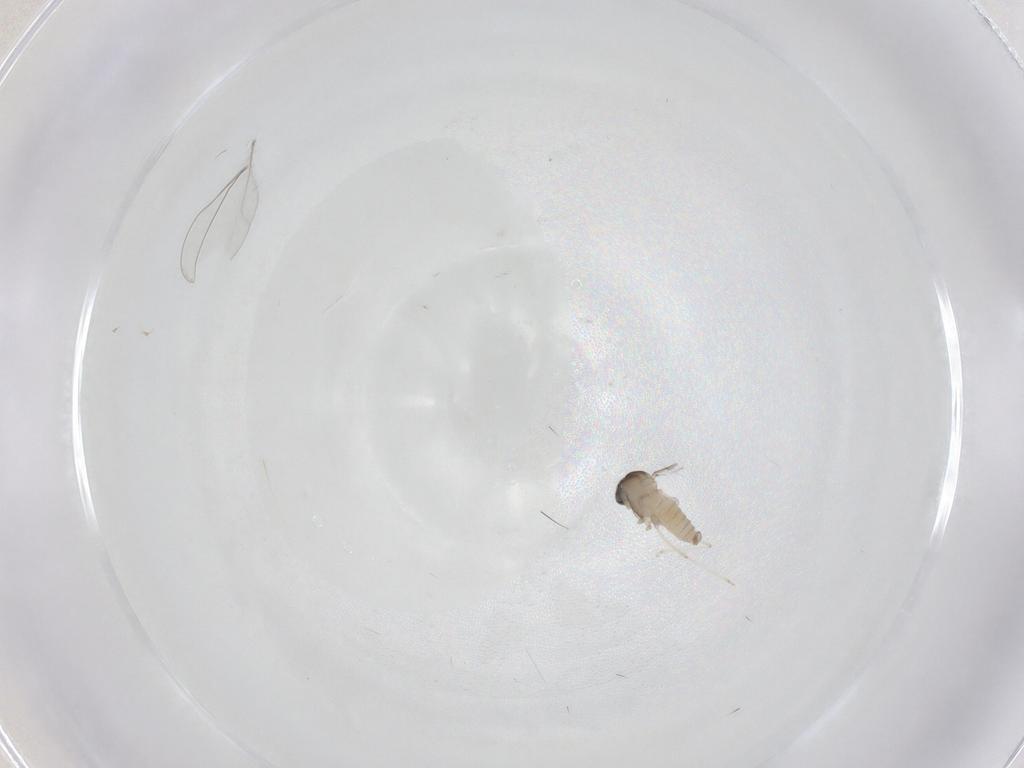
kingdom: Animalia
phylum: Arthropoda
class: Insecta
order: Diptera
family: Cecidomyiidae
